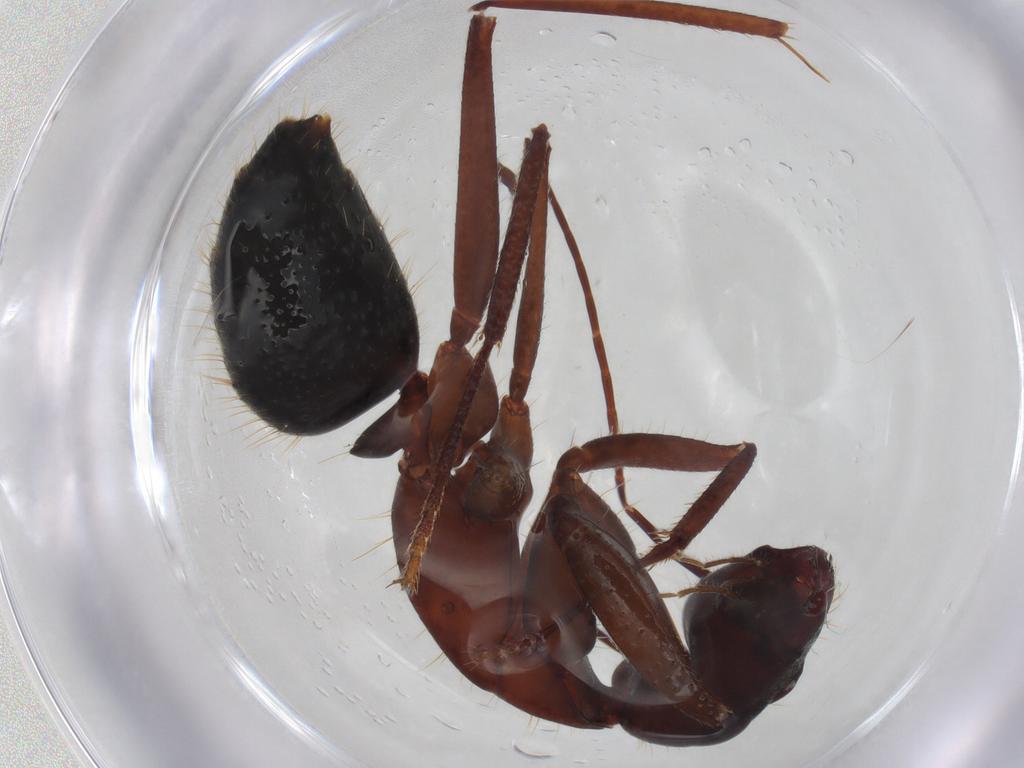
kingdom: Animalia
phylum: Arthropoda
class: Insecta
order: Hymenoptera
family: Formicidae
